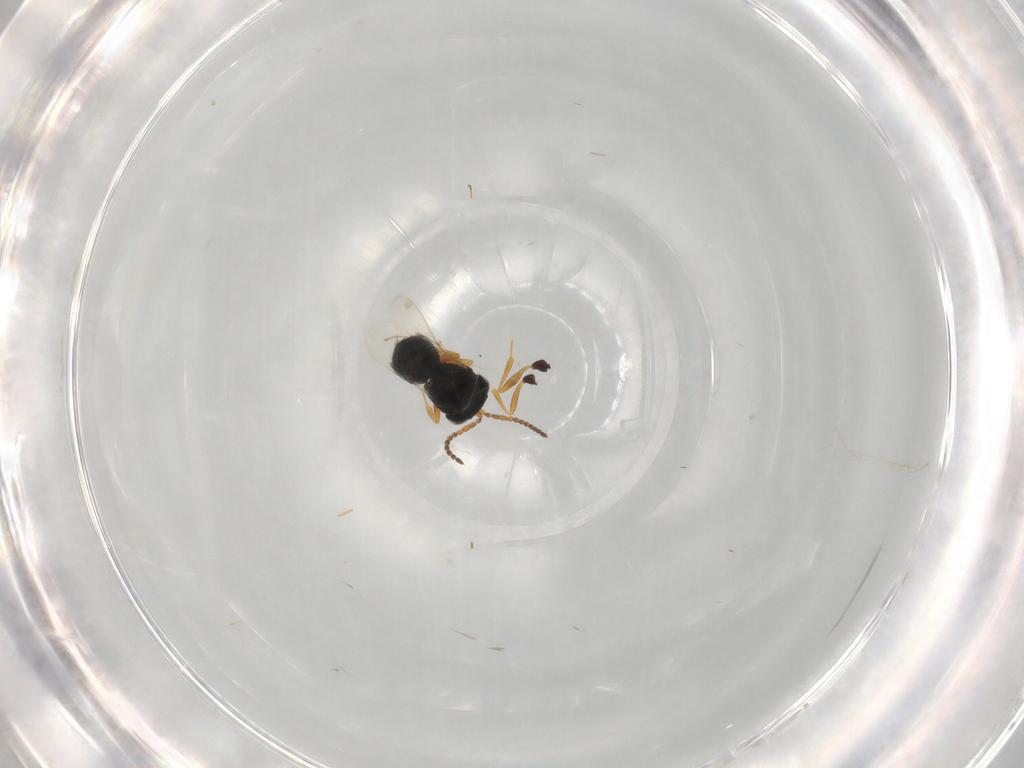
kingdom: Animalia
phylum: Arthropoda
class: Insecta
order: Hymenoptera
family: Scelionidae
